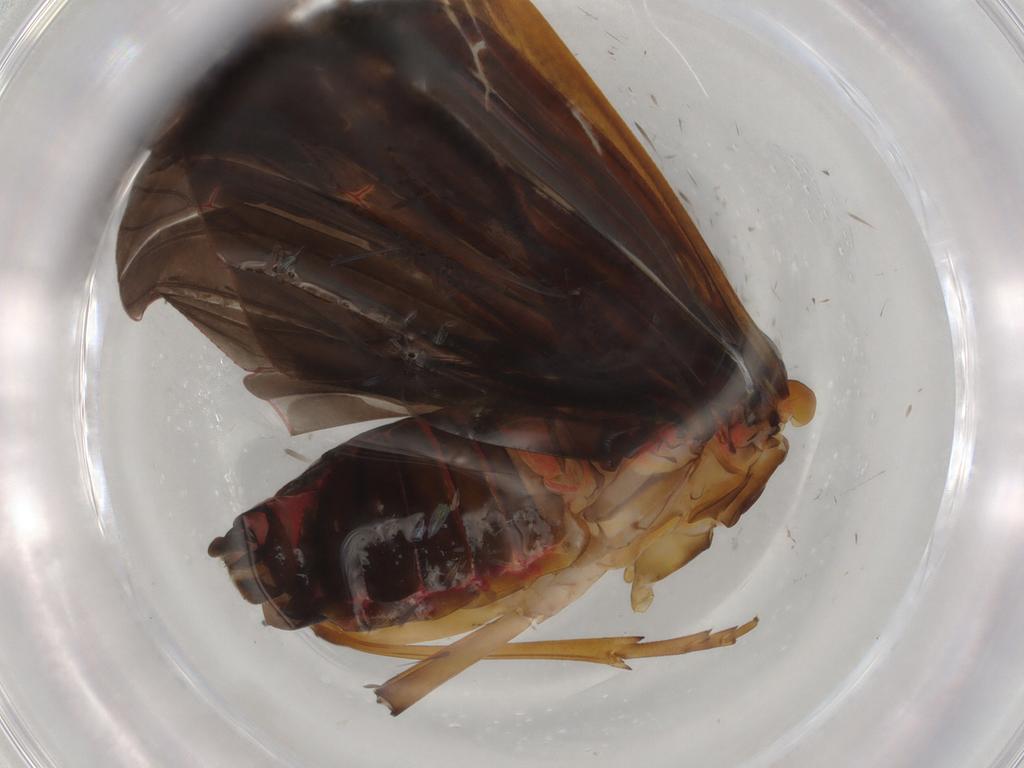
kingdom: Animalia
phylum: Arthropoda
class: Insecta
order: Hemiptera
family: Achilidae
